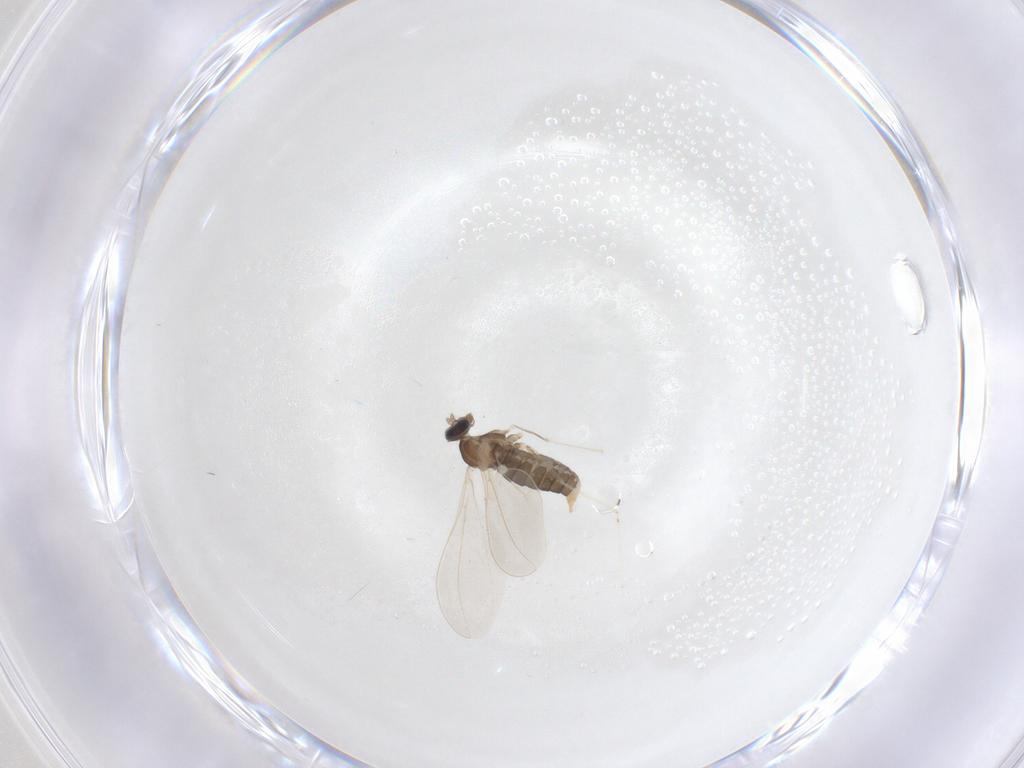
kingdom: Animalia
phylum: Arthropoda
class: Insecta
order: Diptera
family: Cecidomyiidae
